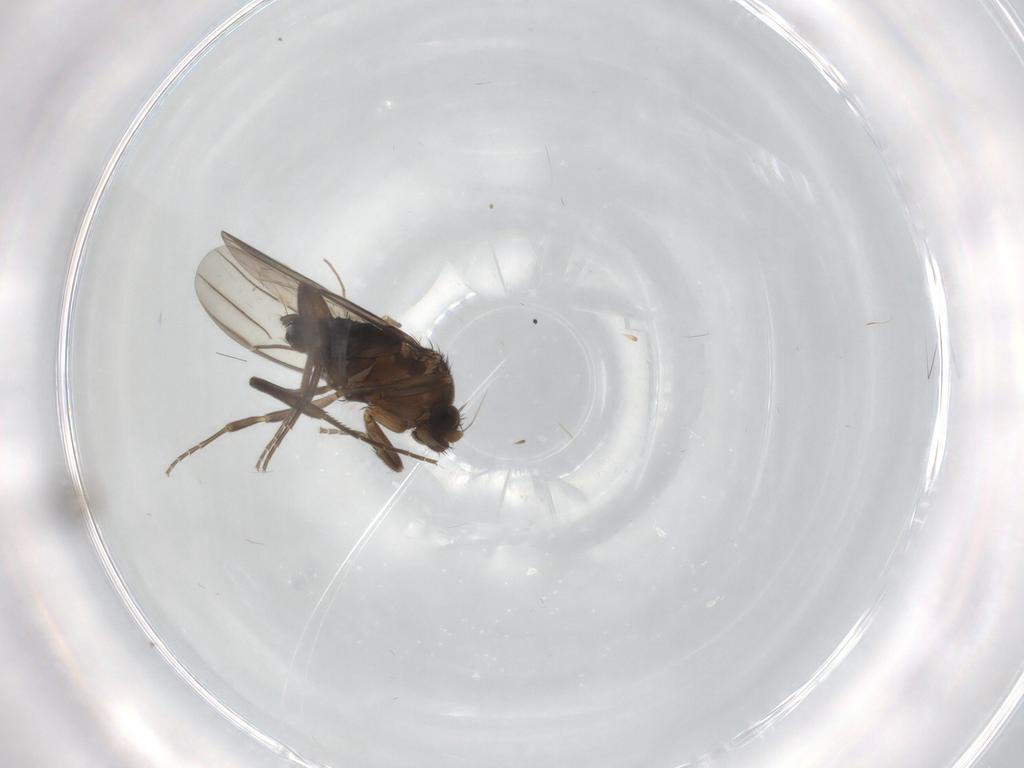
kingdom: Animalia
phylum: Arthropoda
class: Insecta
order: Diptera
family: Chironomidae
